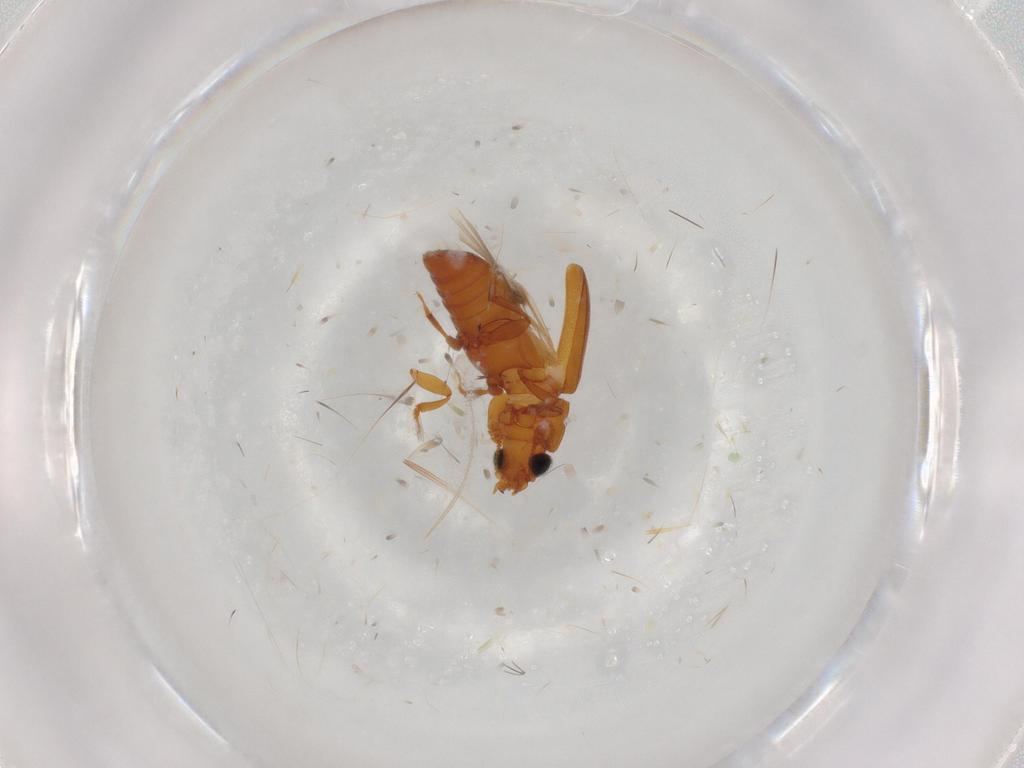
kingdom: Animalia
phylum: Arthropoda
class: Insecta
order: Coleoptera
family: Nitidulidae
